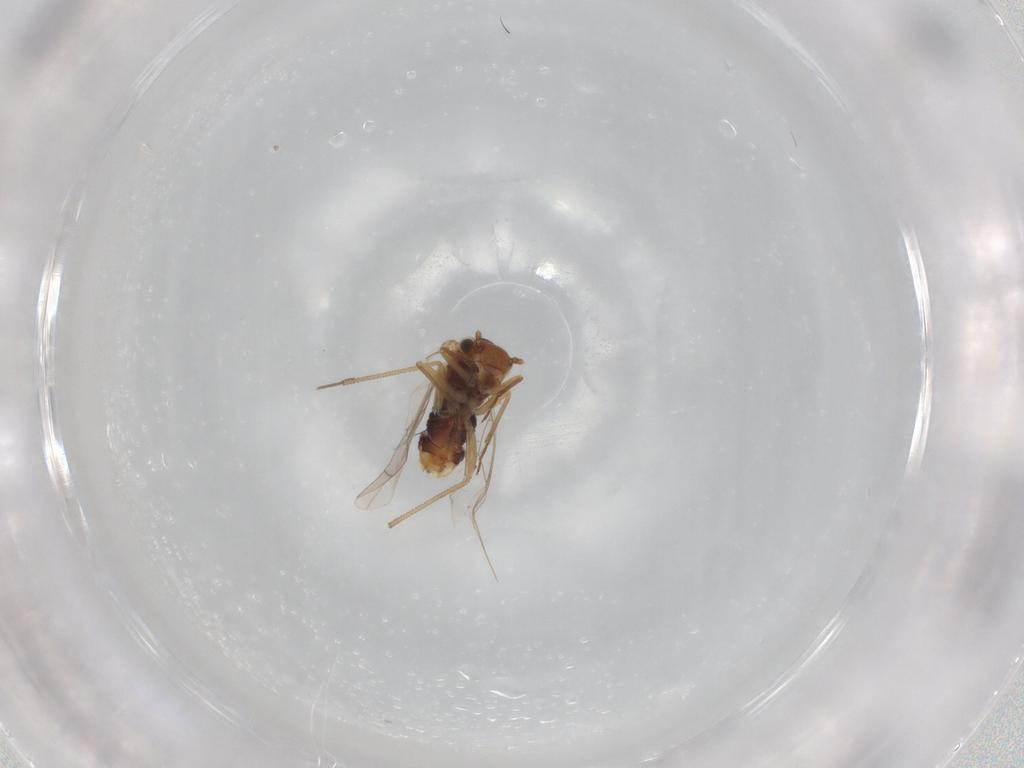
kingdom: Animalia
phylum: Arthropoda
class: Insecta
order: Psocodea
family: Lachesillidae
